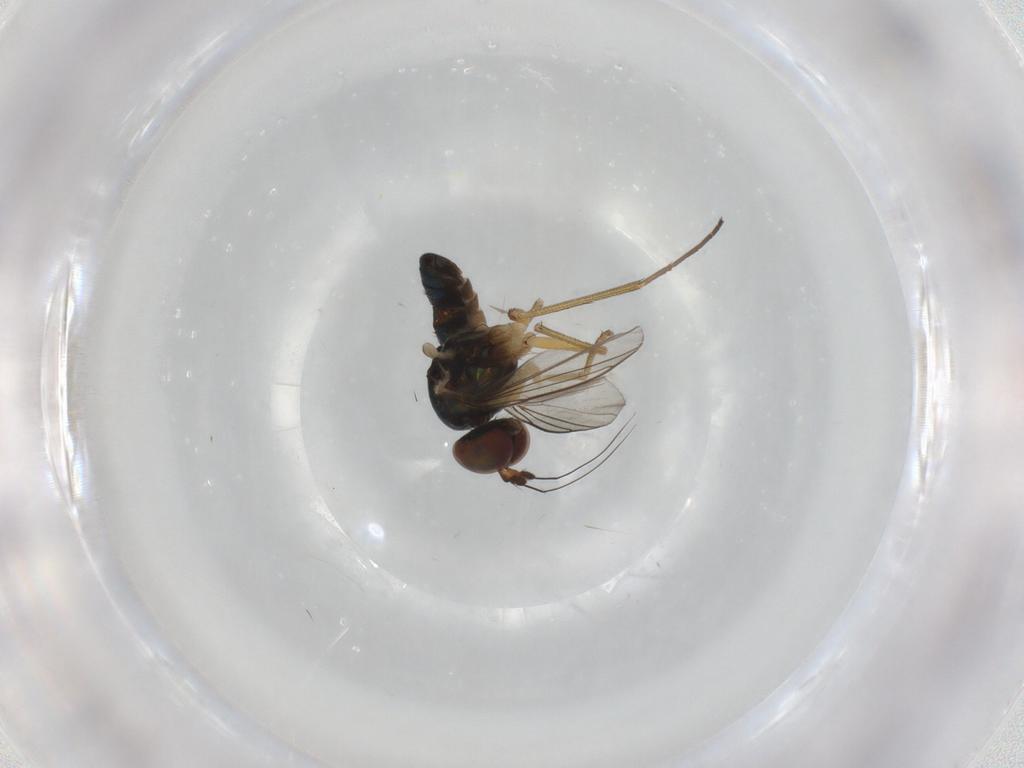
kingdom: Animalia
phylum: Arthropoda
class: Insecta
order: Diptera
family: Dolichopodidae
